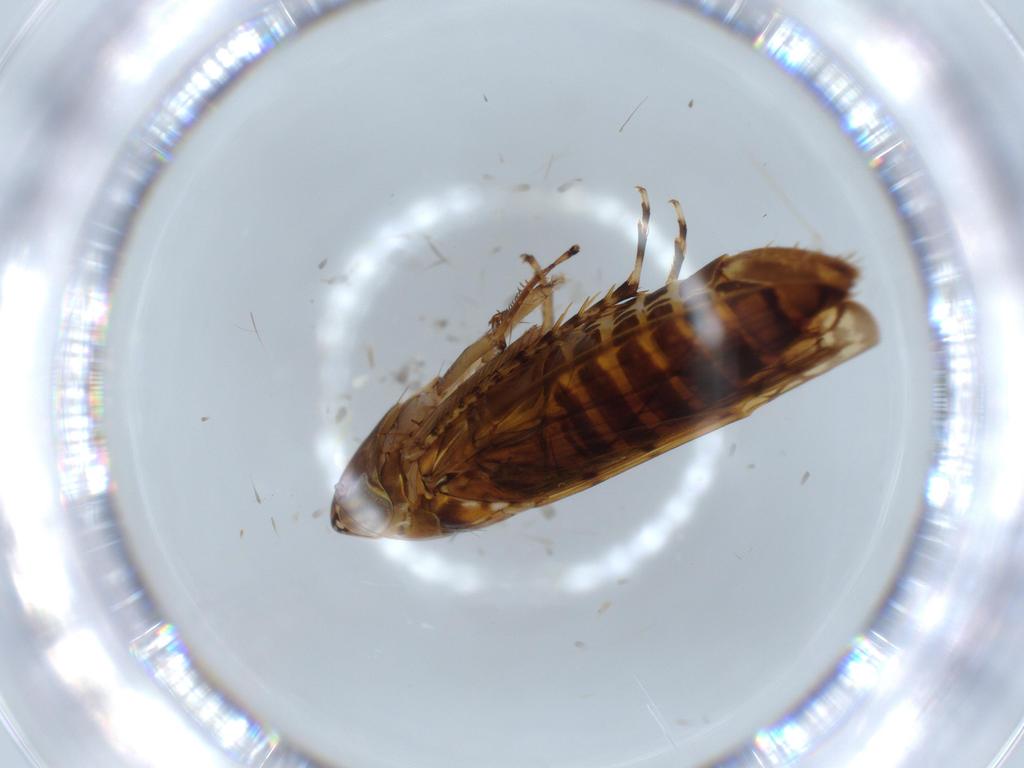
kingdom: Animalia
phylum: Arthropoda
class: Insecta
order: Hemiptera
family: Cicadellidae
